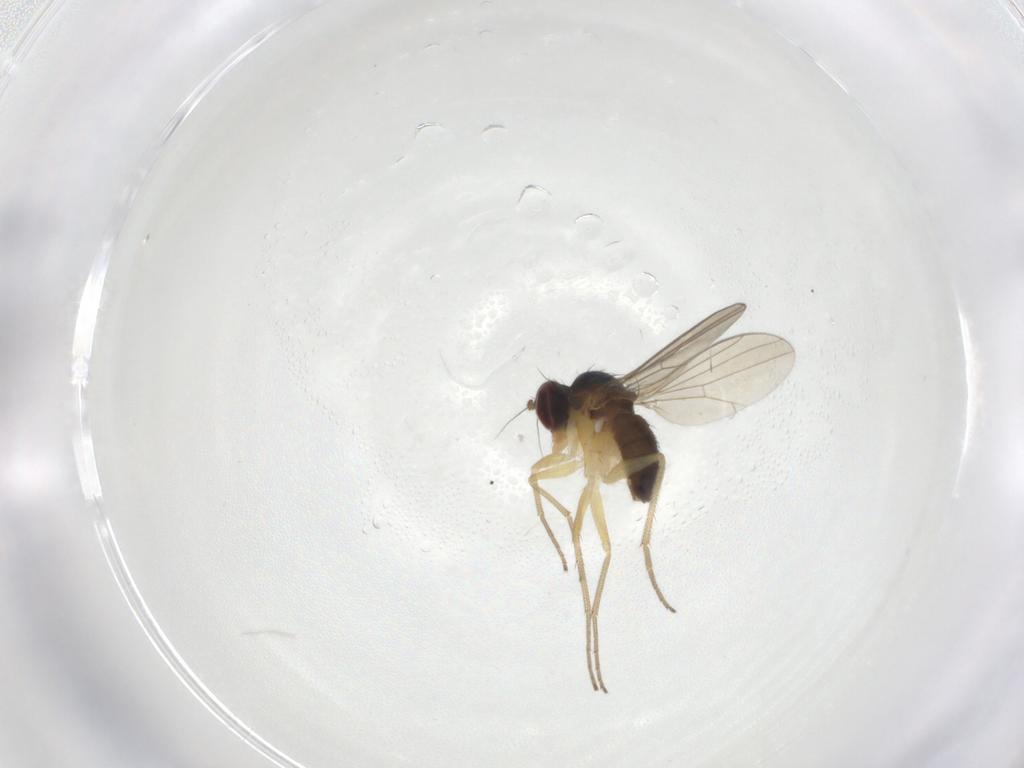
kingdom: Animalia
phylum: Arthropoda
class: Insecta
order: Diptera
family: Dolichopodidae
